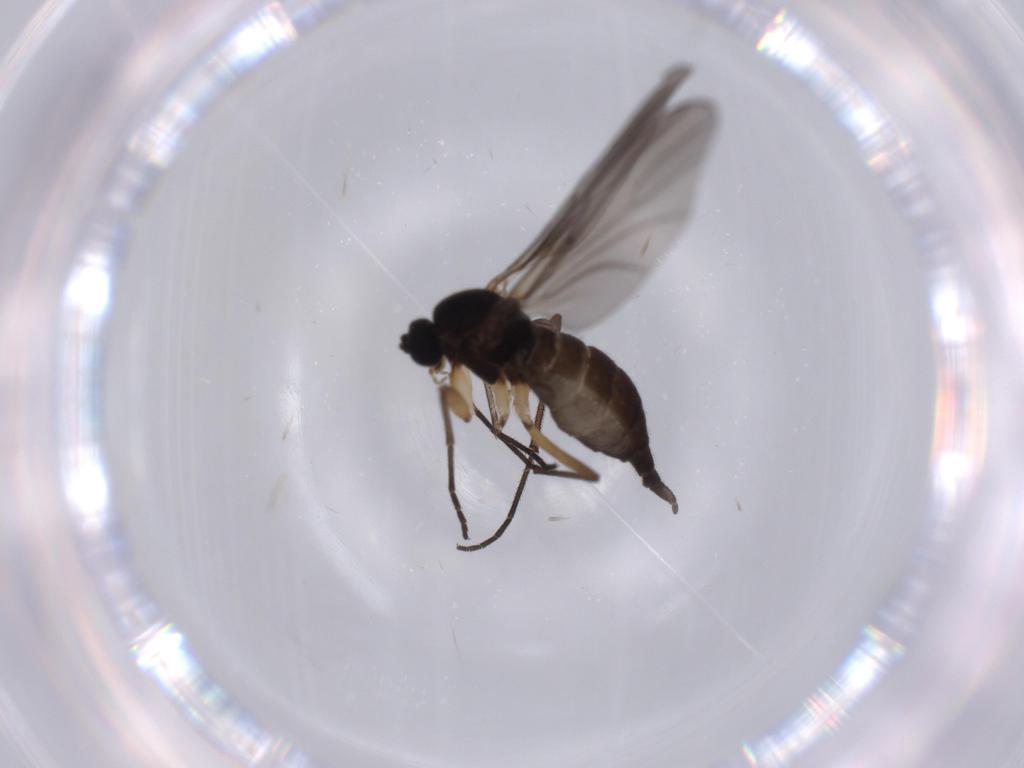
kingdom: Animalia
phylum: Arthropoda
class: Insecta
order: Diptera
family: Sciaridae
